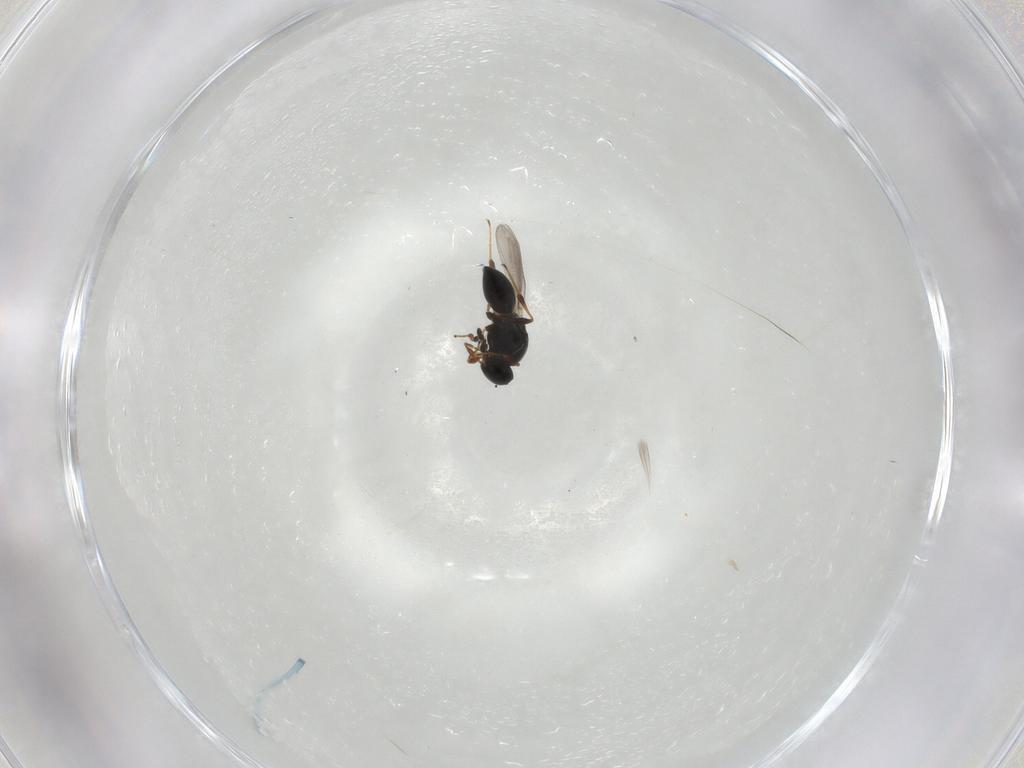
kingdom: Animalia
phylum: Arthropoda
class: Insecta
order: Hymenoptera
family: Platygastridae
